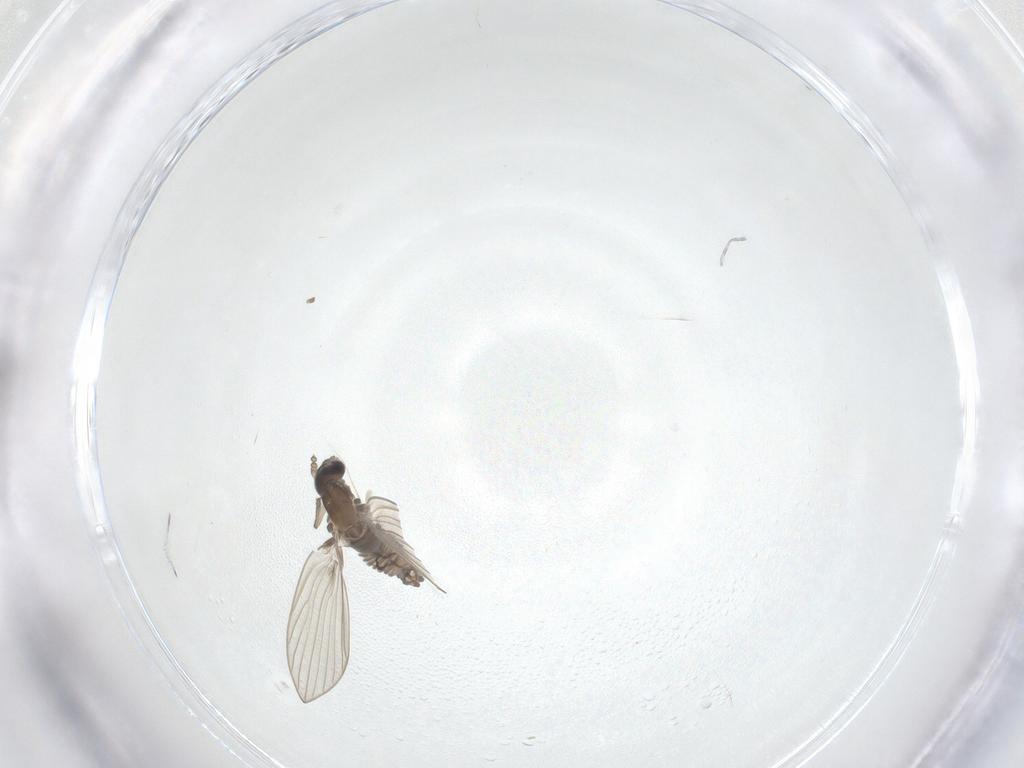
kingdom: Animalia
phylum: Arthropoda
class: Insecta
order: Diptera
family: Psychodidae
